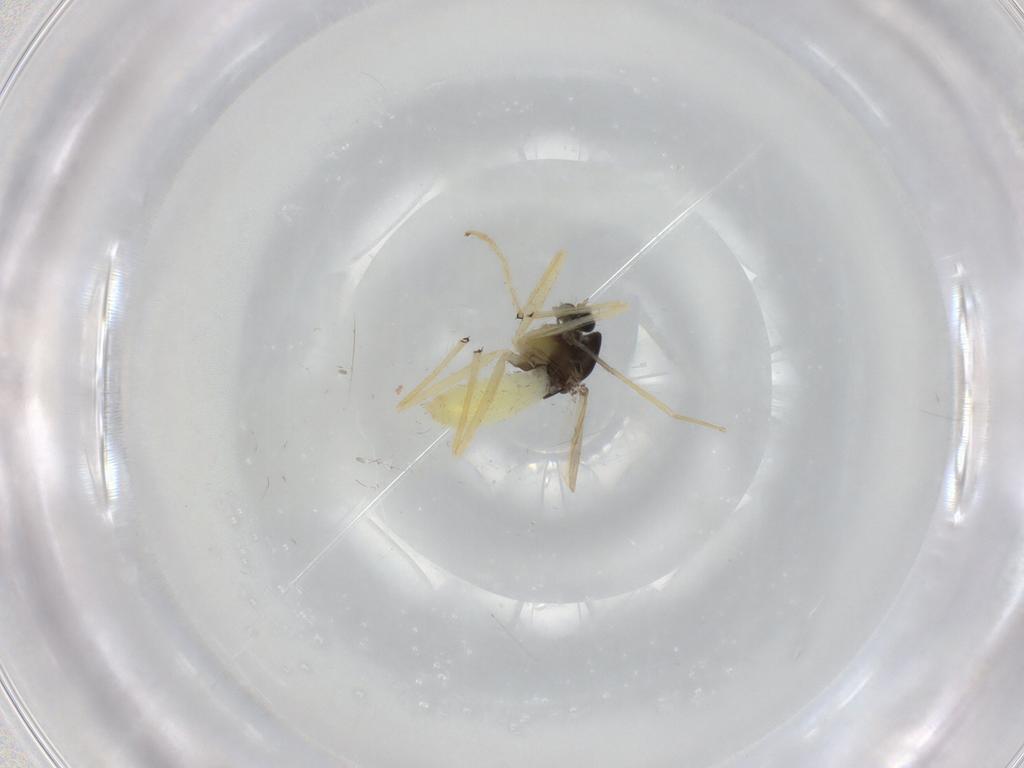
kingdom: Animalia
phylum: Arthropoda
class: Insecta
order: Diptera
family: Chironomidae
